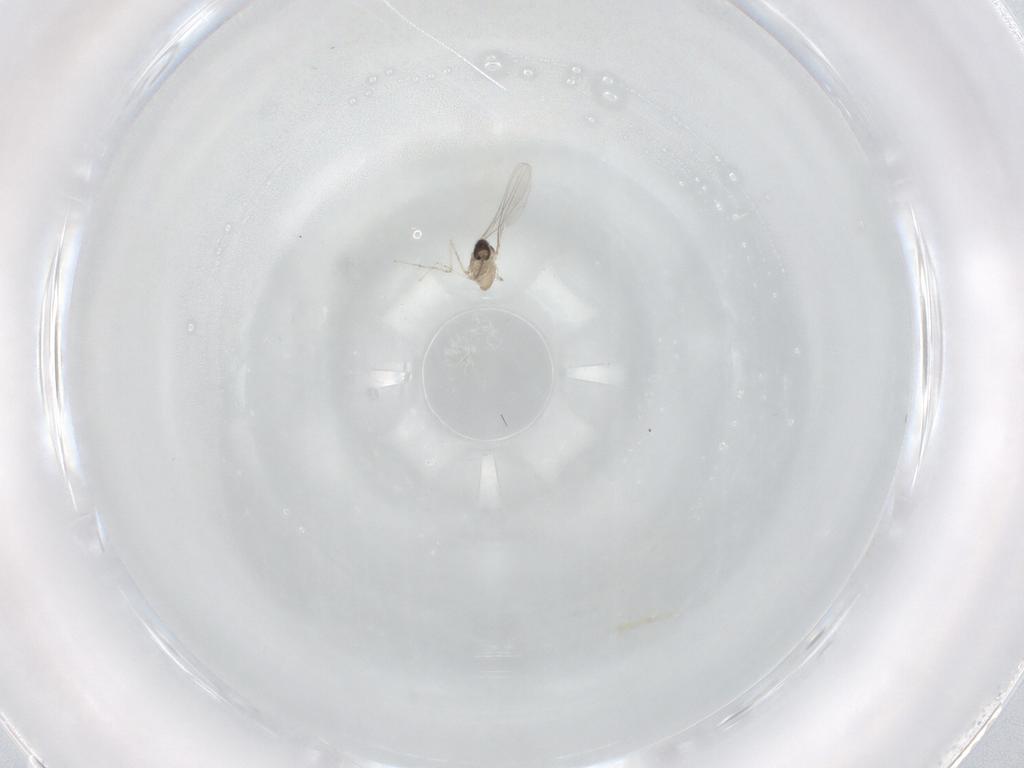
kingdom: Animalia
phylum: Arthropoda
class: Insecta
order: Diptera
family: Cecidomyiidae
